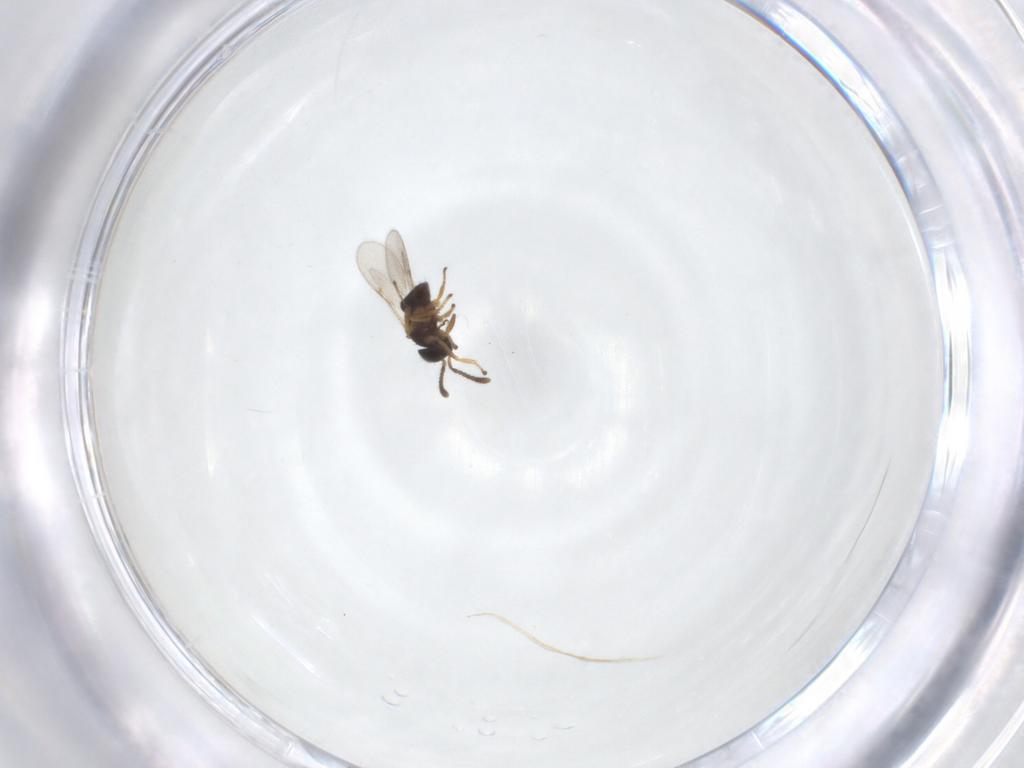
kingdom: Animalia
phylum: Arthropoda
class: Insecta
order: Hymenoptera
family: Encyrtidae
